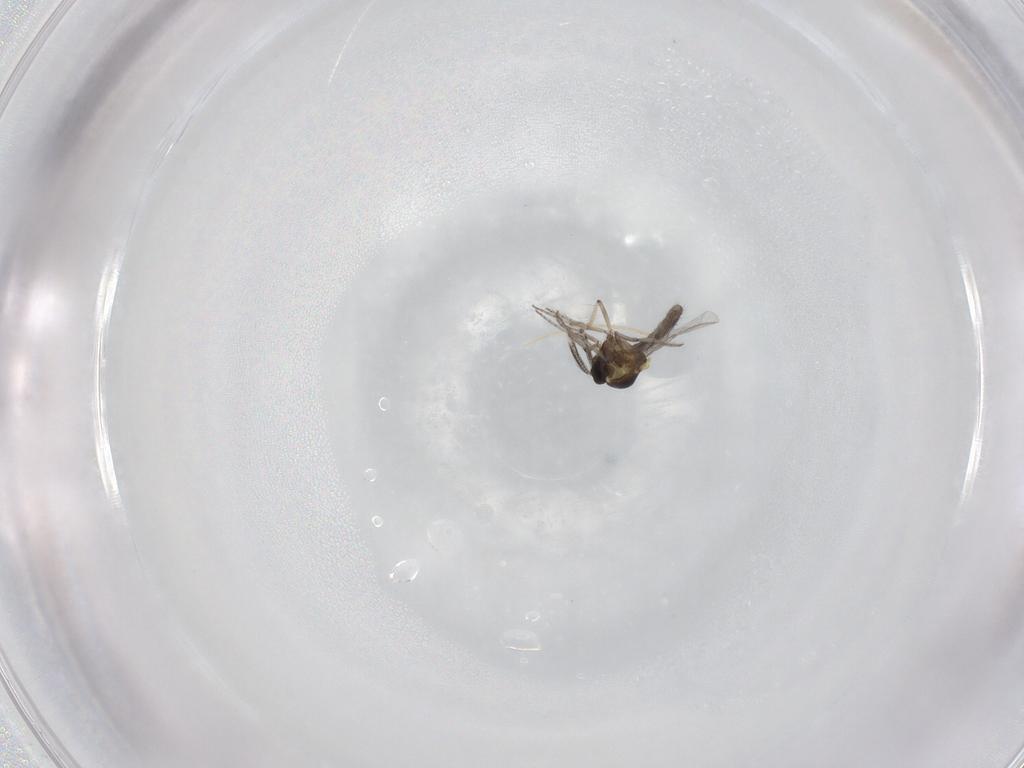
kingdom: Animalia
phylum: Arthropoda
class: Insecta
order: Diptera
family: Ceratopogonidae
